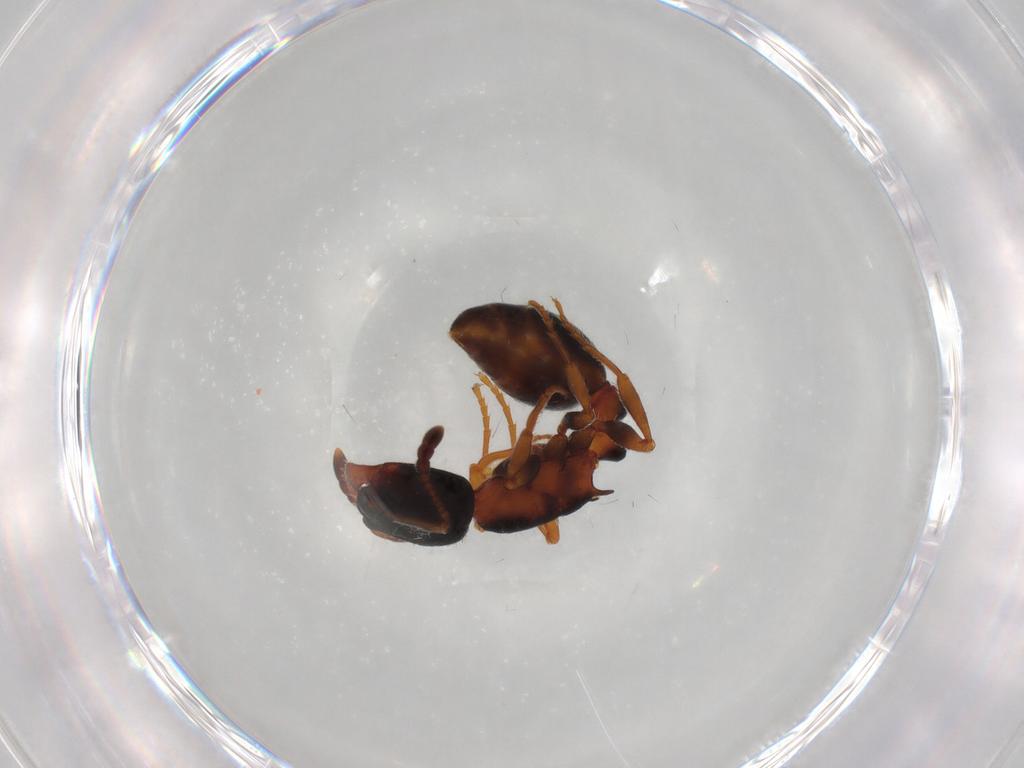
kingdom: Animalia
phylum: Arthropoda
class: Insecta
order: Hymenoptera
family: Formicidae
